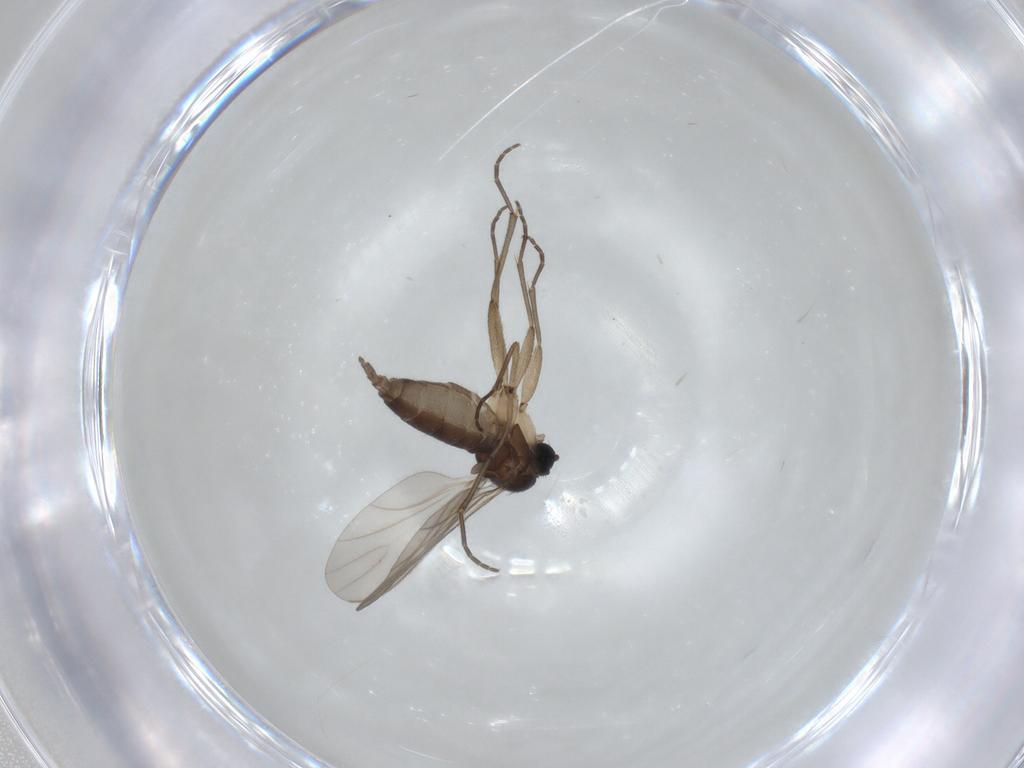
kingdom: Animalia
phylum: Arthropoda
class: Insecta
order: Diptera
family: Sciaridae
